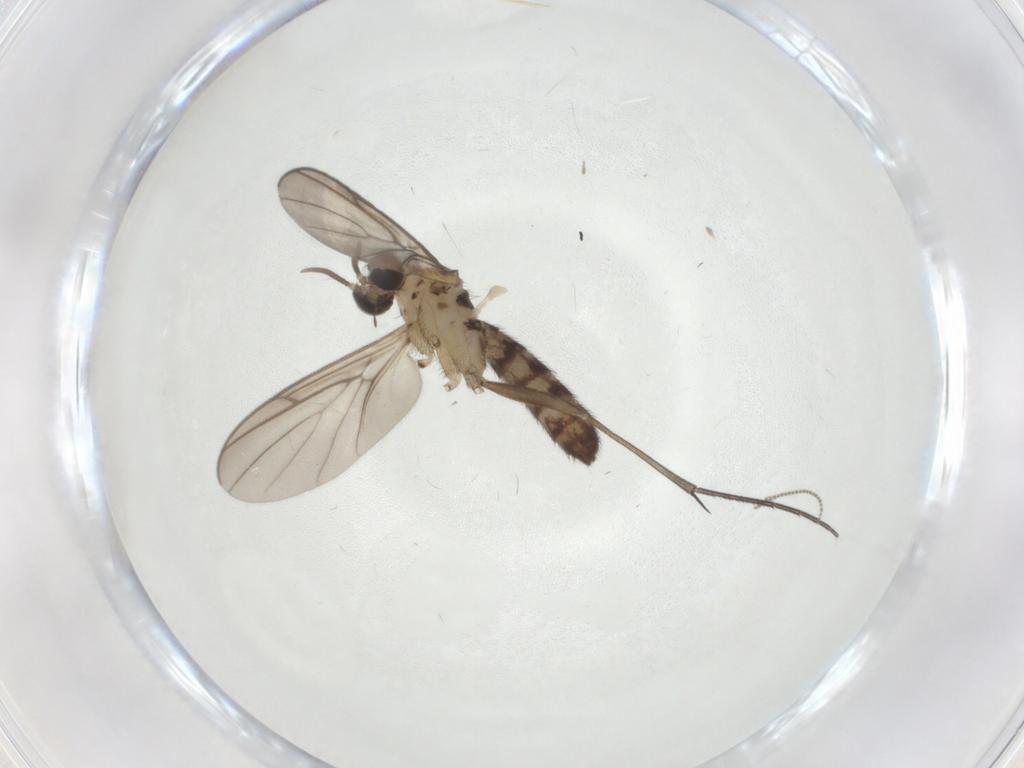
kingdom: Animalia
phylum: Arthropoda
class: Insecta
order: Diptera
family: Keroplatidae
